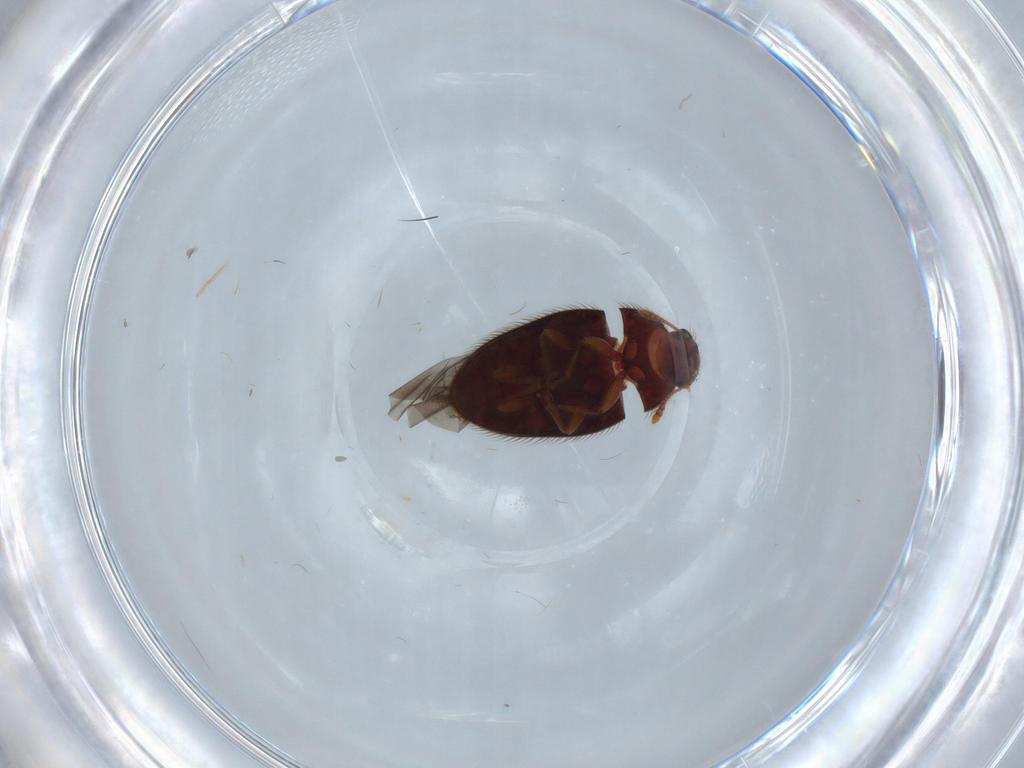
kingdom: Animalia
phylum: Arthropoda
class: Insecta
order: Coleoptera
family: Biphyllidae
